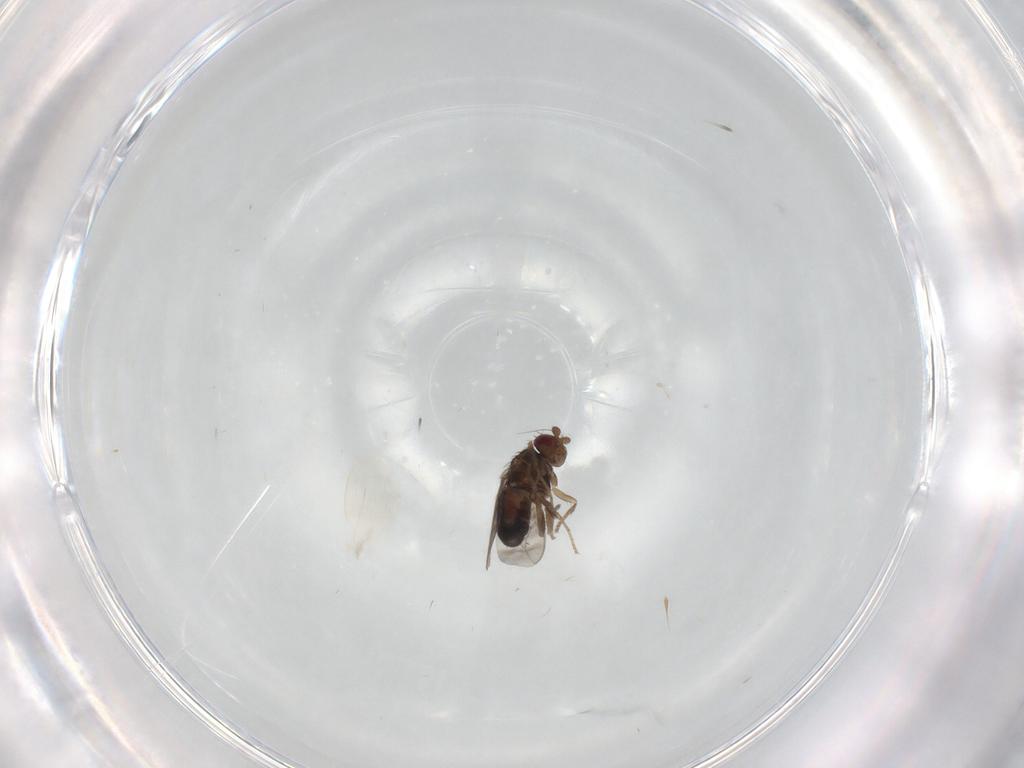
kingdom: Animalia
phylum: Arthropoda
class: Insecta
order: Diptera
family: Sphaeroceridae
